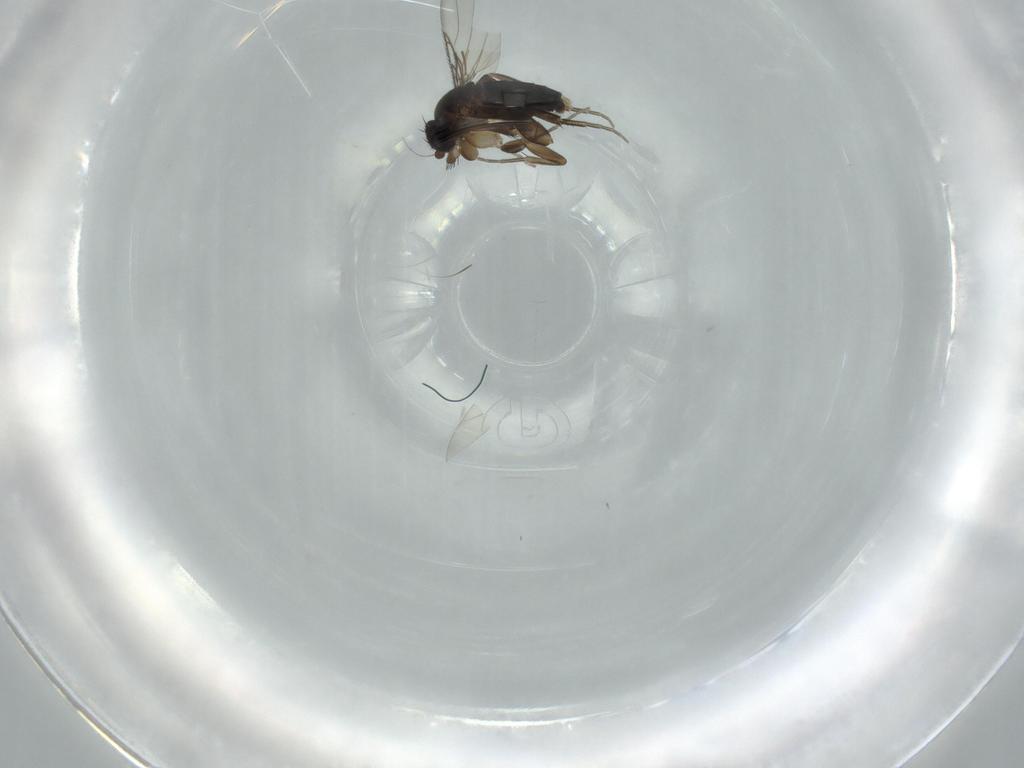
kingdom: Animalia
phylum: Arthropoda
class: Insecta
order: Diptera
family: Phoridae
